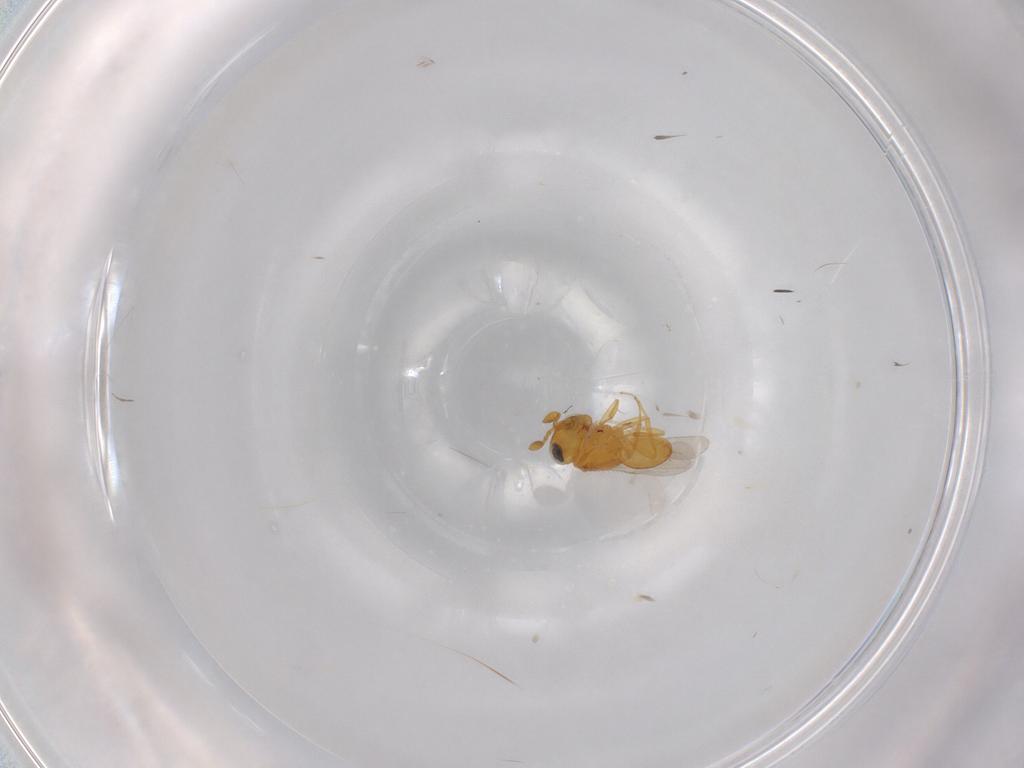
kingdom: Animalia
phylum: Arthropoda
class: Insecta
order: Hymenoptera
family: Scelionidae
